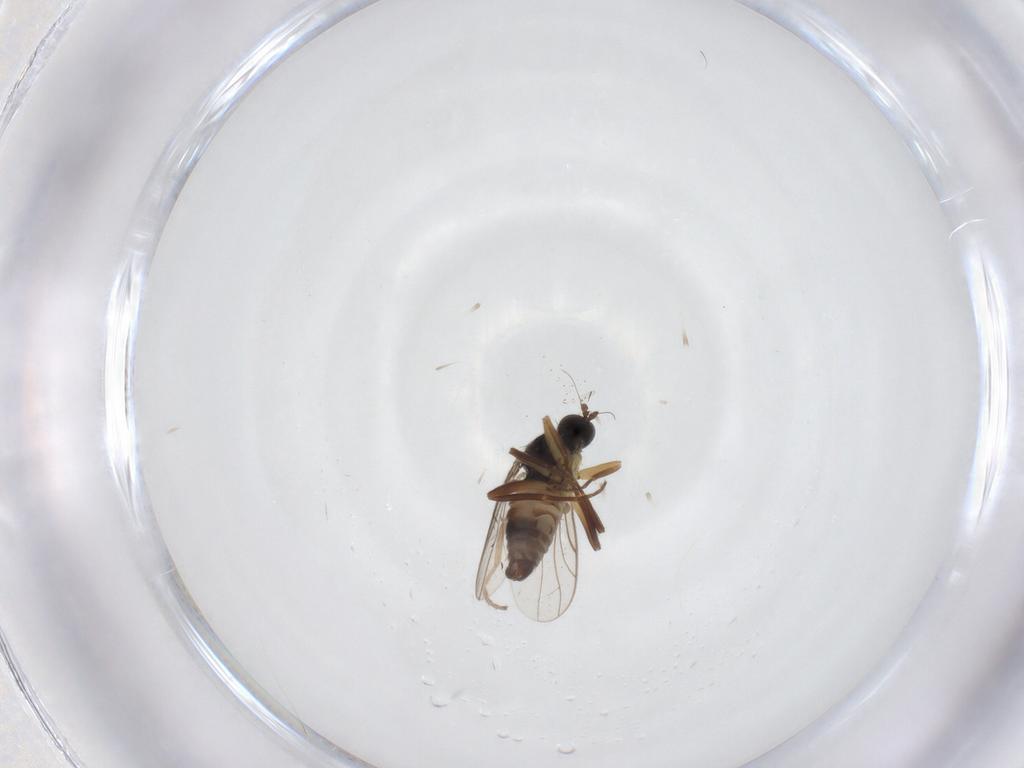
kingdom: Animalia
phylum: Arthropoda
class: Insecta
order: Diptera
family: Hybotidae
